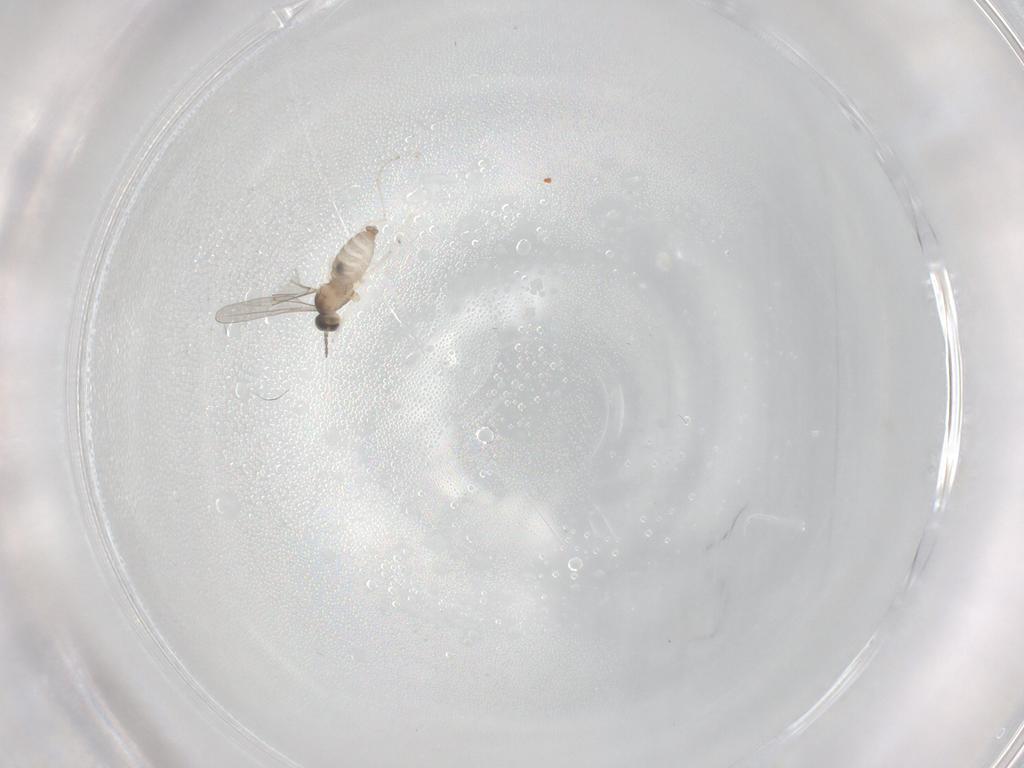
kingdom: Animalia
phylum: Arthropoda
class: Insecta
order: Diptera
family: Cecidomyiidae
